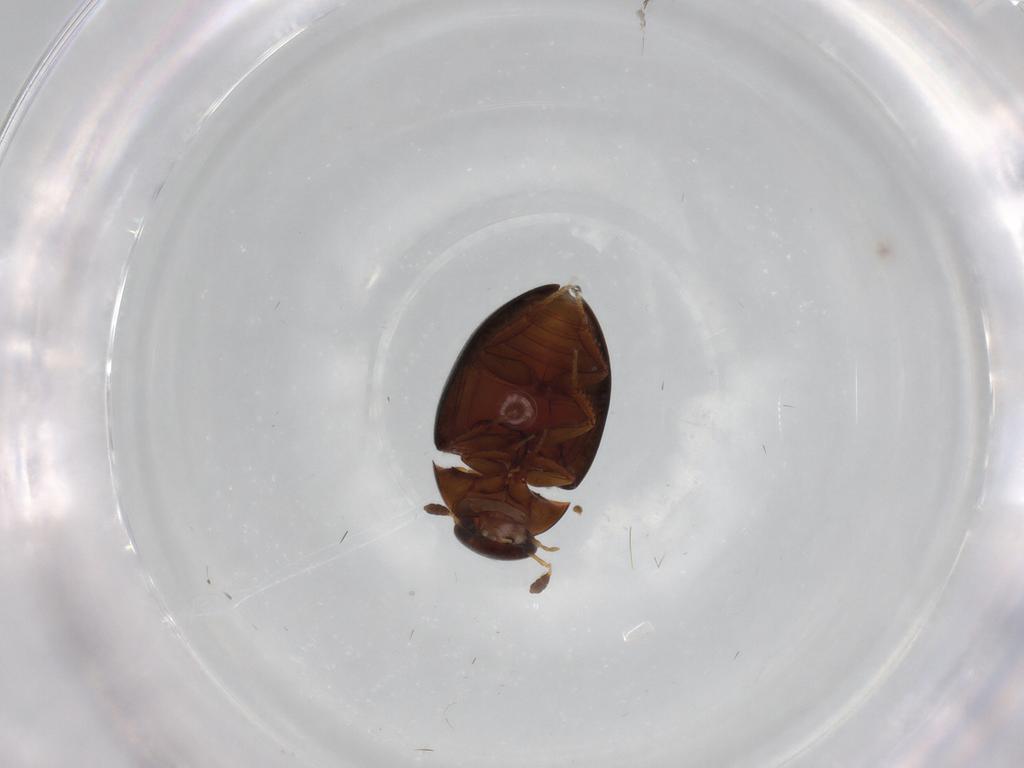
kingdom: Animalia
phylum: Arthropoda
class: Insecta
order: Coleoptera
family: Hydrophilidae
